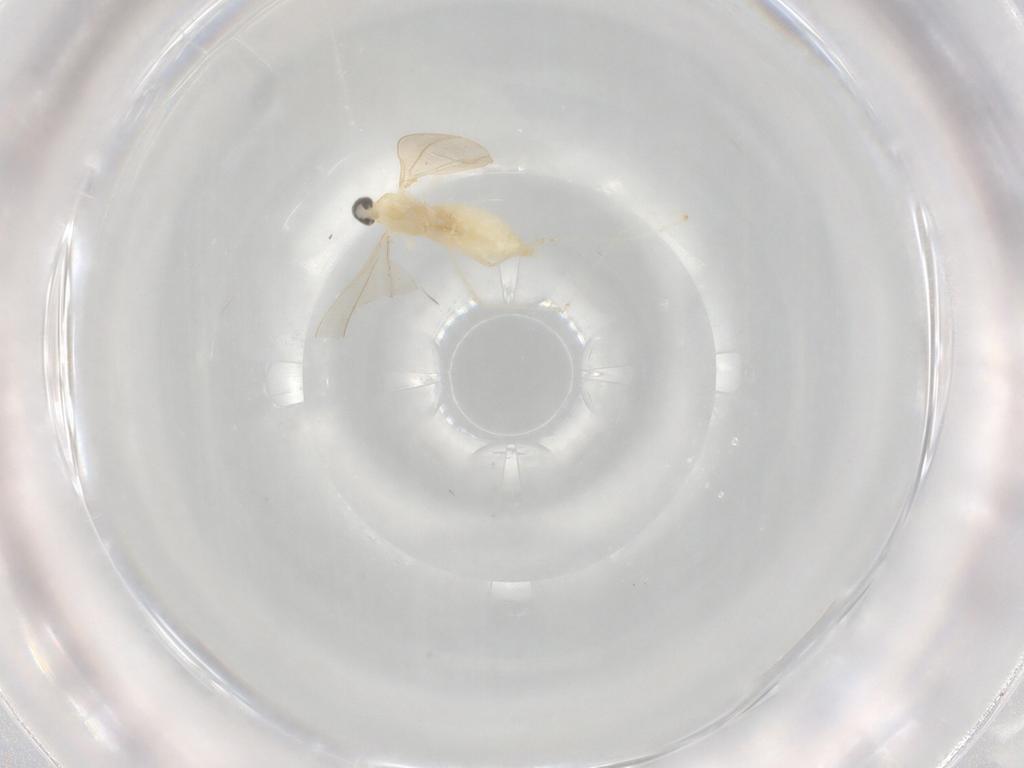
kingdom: Animalia
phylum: Arthropoda
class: Insecta
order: Diptera
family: Cecidomyiidae
